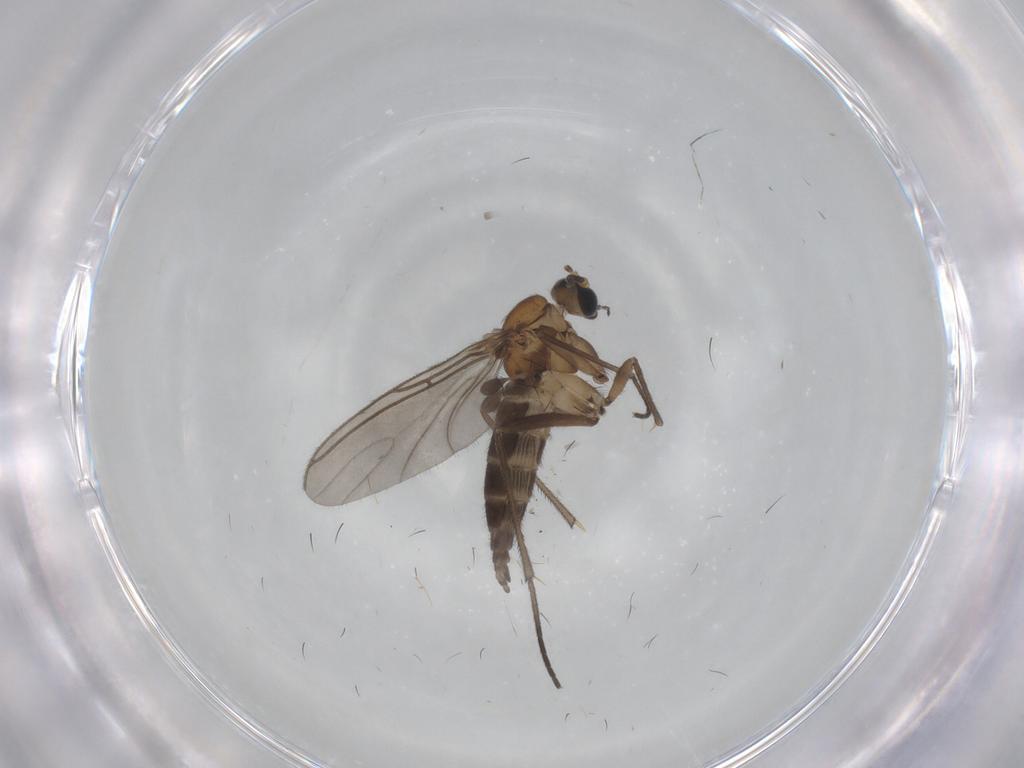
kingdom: Animalia
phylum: Arthropoda
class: Insecta
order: Diptera
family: Sciaridae
